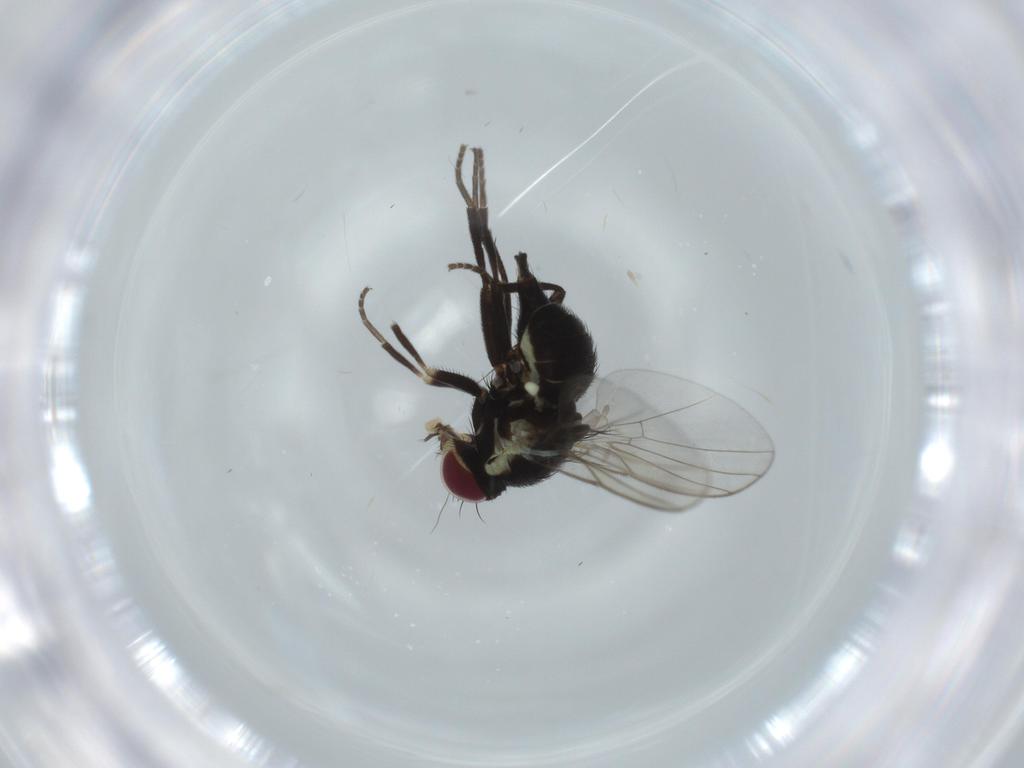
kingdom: Animalia
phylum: Arthropoda
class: Insecta
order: Diptera
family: Agromyzidae
